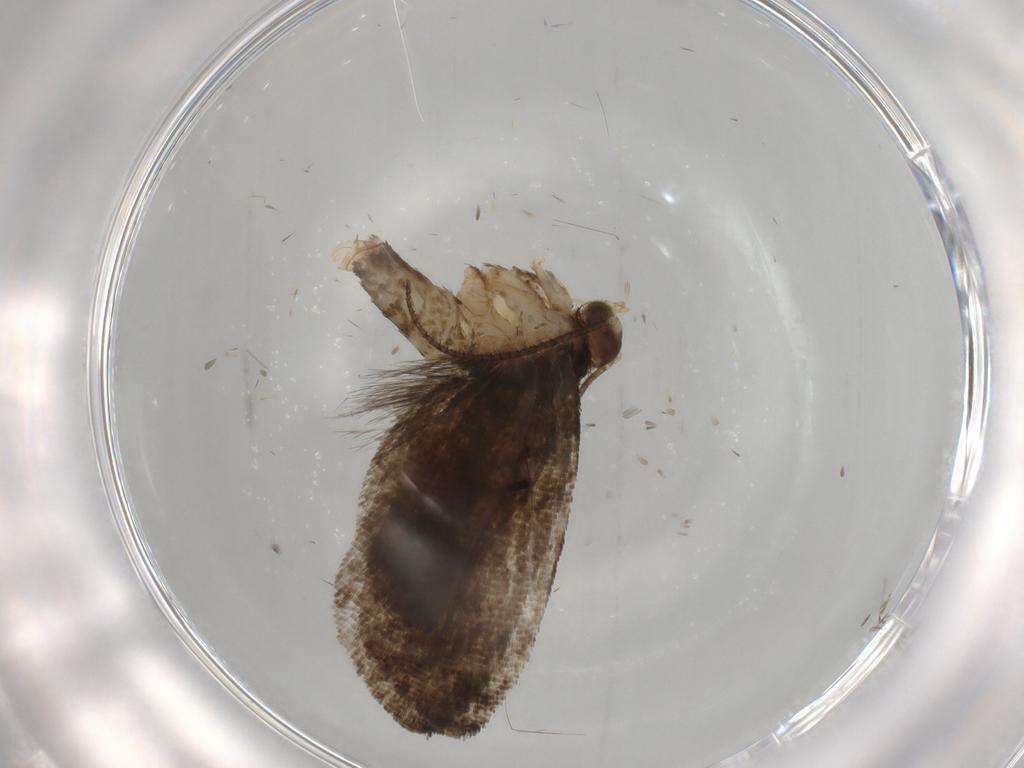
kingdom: Animalia
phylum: Arthropoda
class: Insecta
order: Lepidoptera
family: Tortricidae
